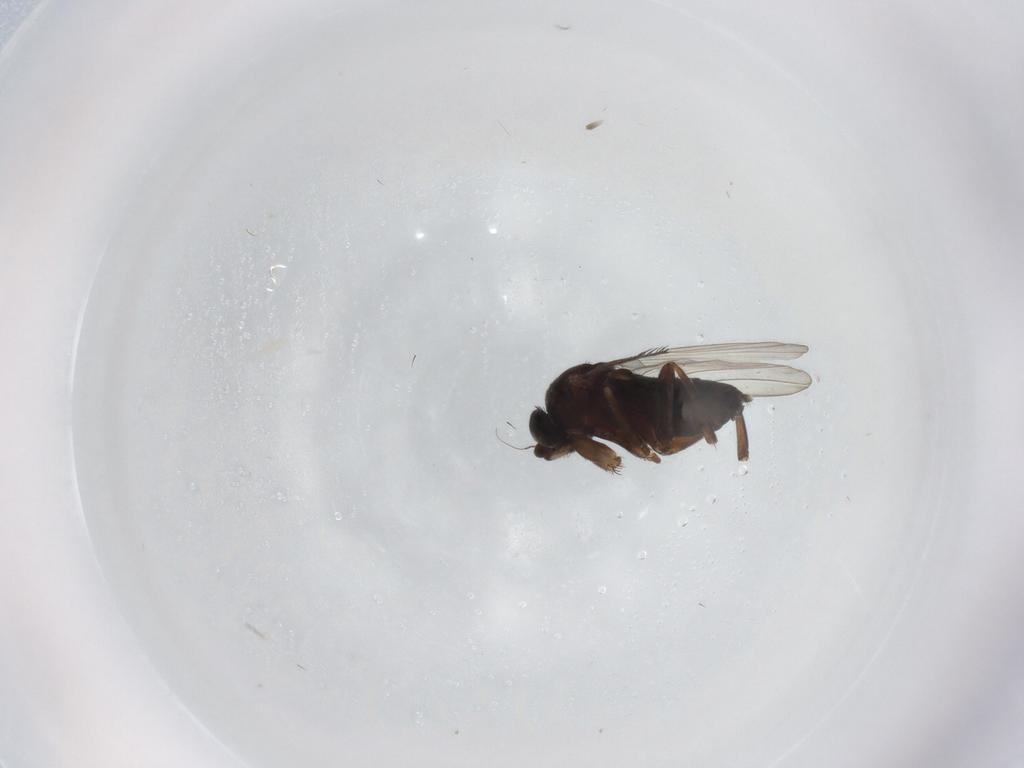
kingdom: Animalia
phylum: Arthropoda
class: Insecta
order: Diptera
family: Phoridae
